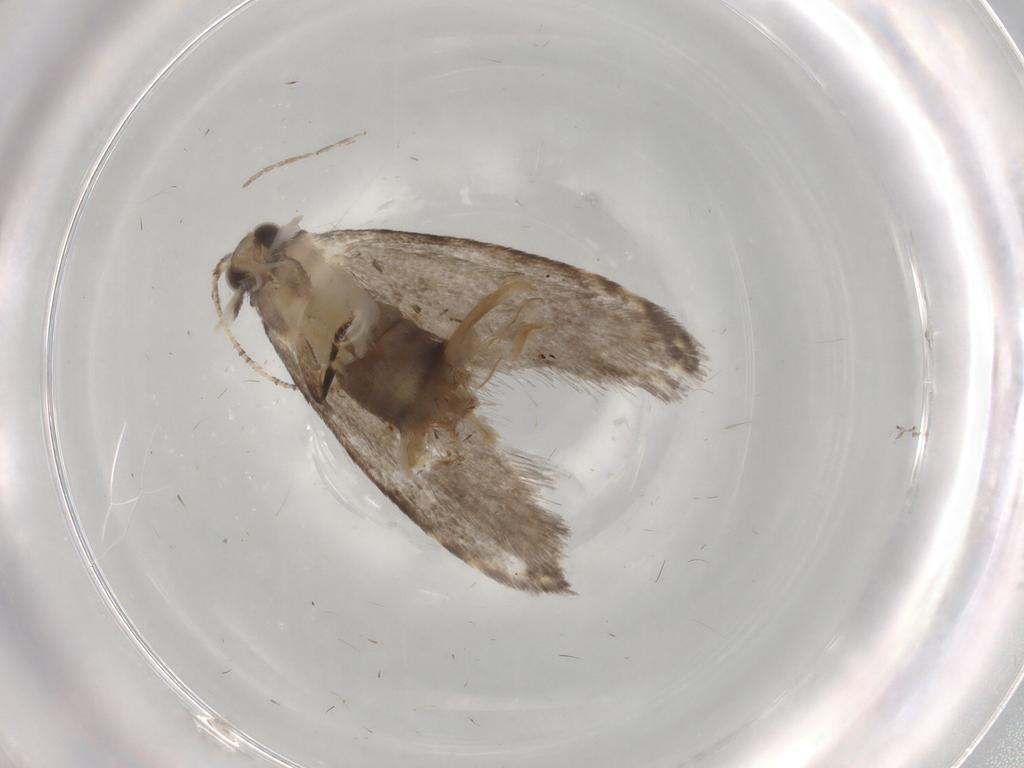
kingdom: Animalia
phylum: Arthropoda
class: Insecta
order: Lepidoptera
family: Tineidae
